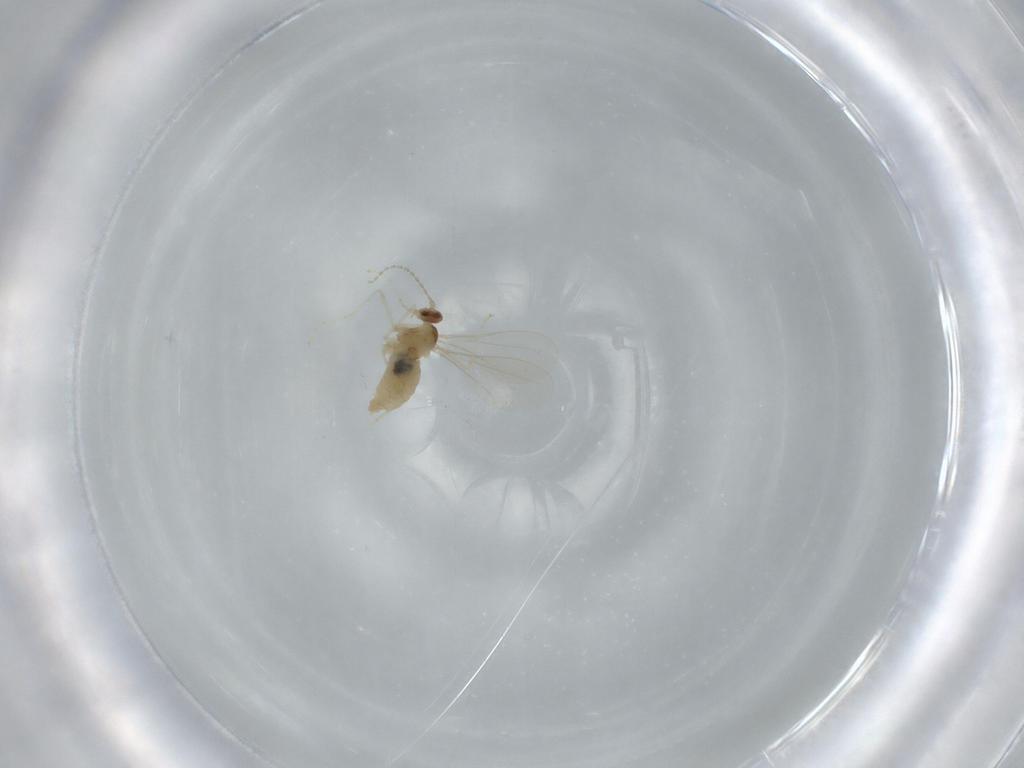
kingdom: Animalia
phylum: Arthropoda
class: Insecta
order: Diptera
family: Cecidomyiidae
